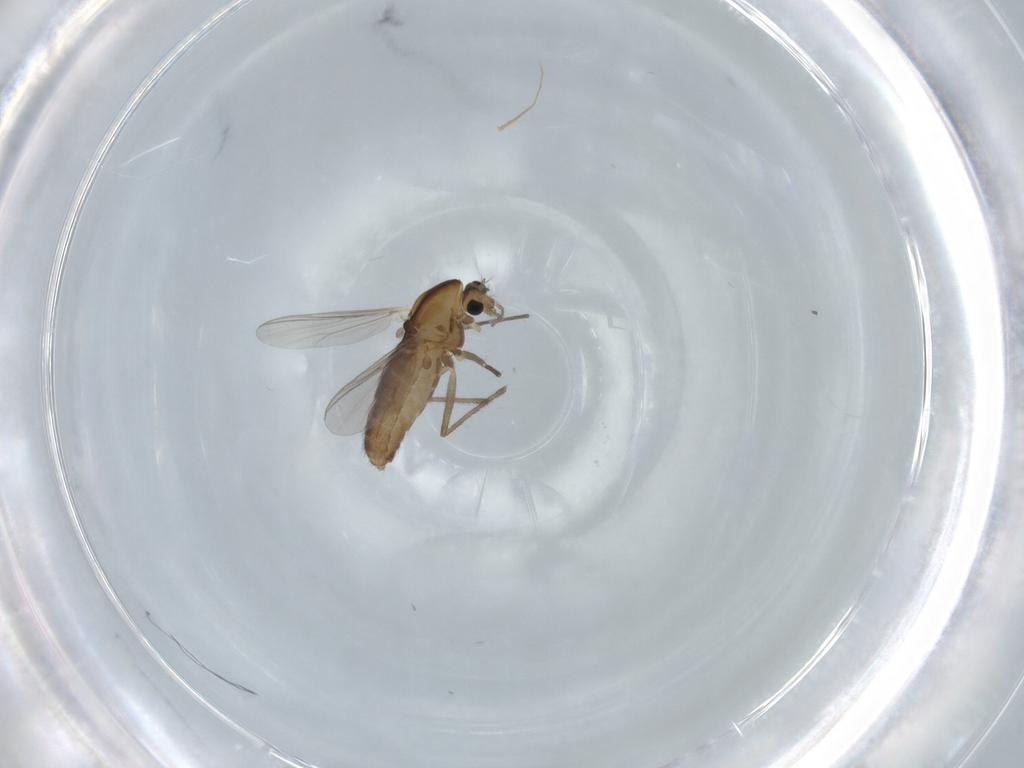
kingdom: Animalia
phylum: Arthropoda
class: Insecta
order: Diptera
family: Chironomidae
